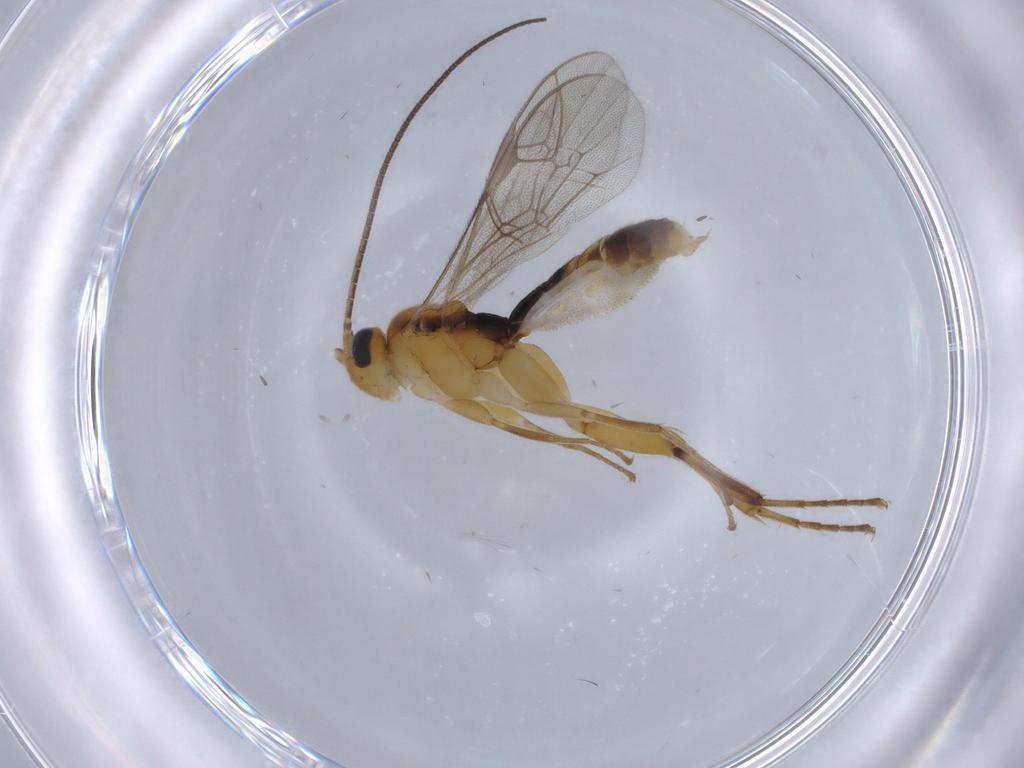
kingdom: Animalia
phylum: Arthropoda
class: Insecta
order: Hymenoptera
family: Ichneumonidae
